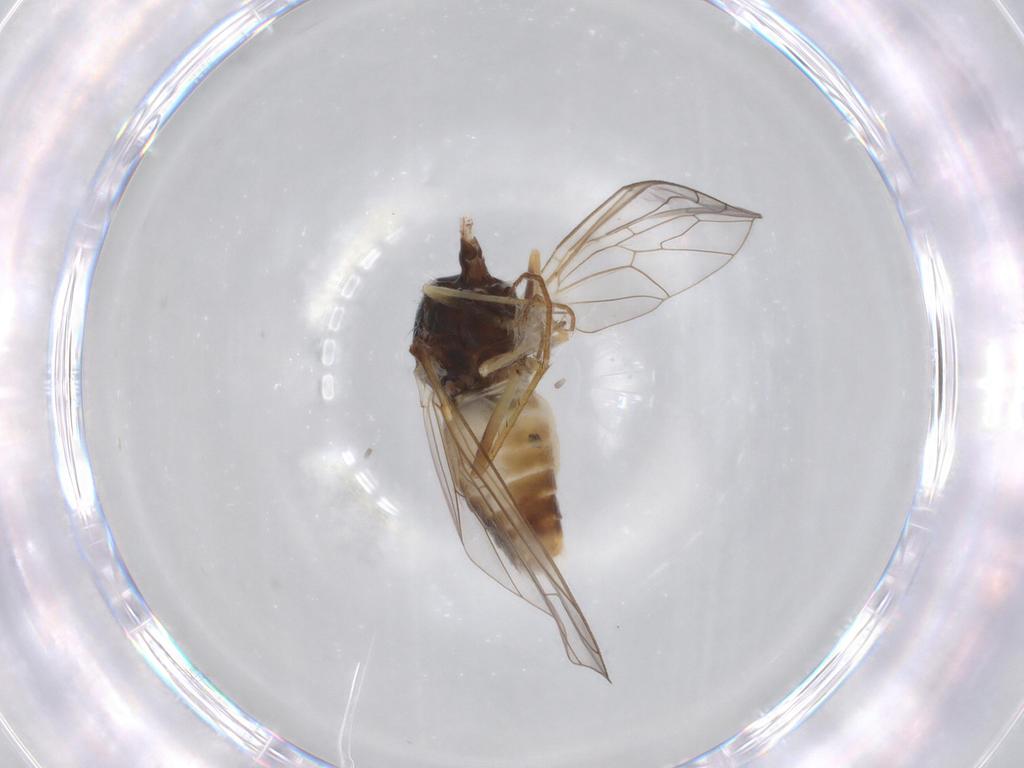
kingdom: Animalia
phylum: Arthropoda
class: Insecta
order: Diptera
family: Bombyliidae
